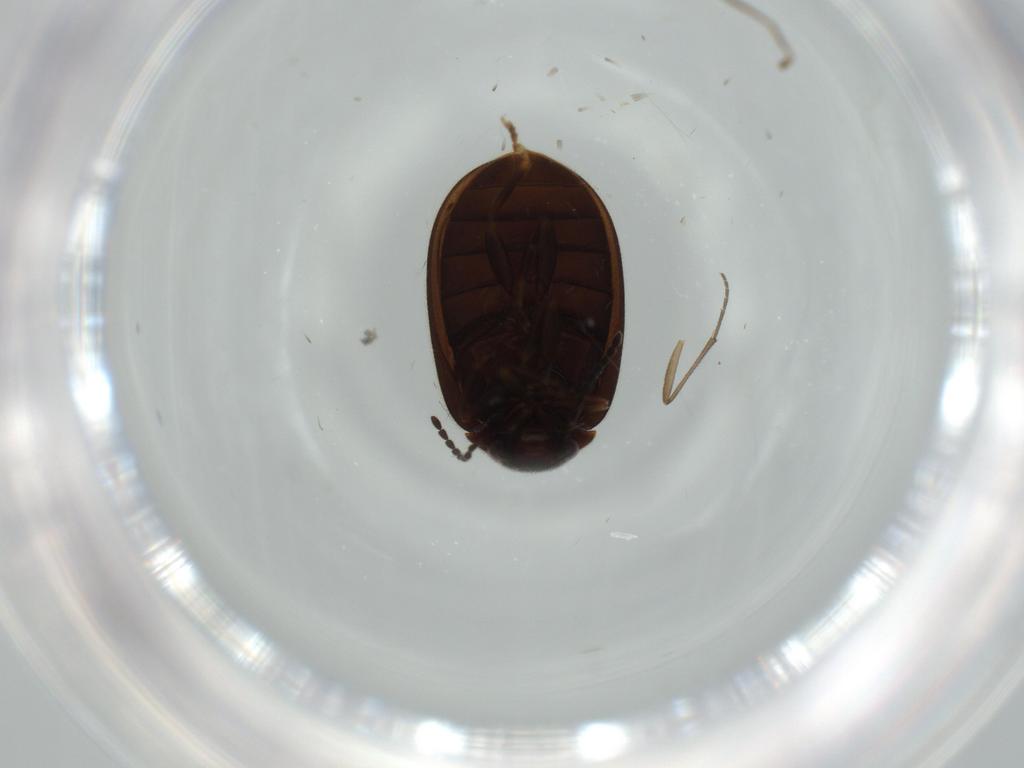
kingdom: Animalia
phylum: Arthropoda
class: Insecta
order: Coleoptera
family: Scirtidae
